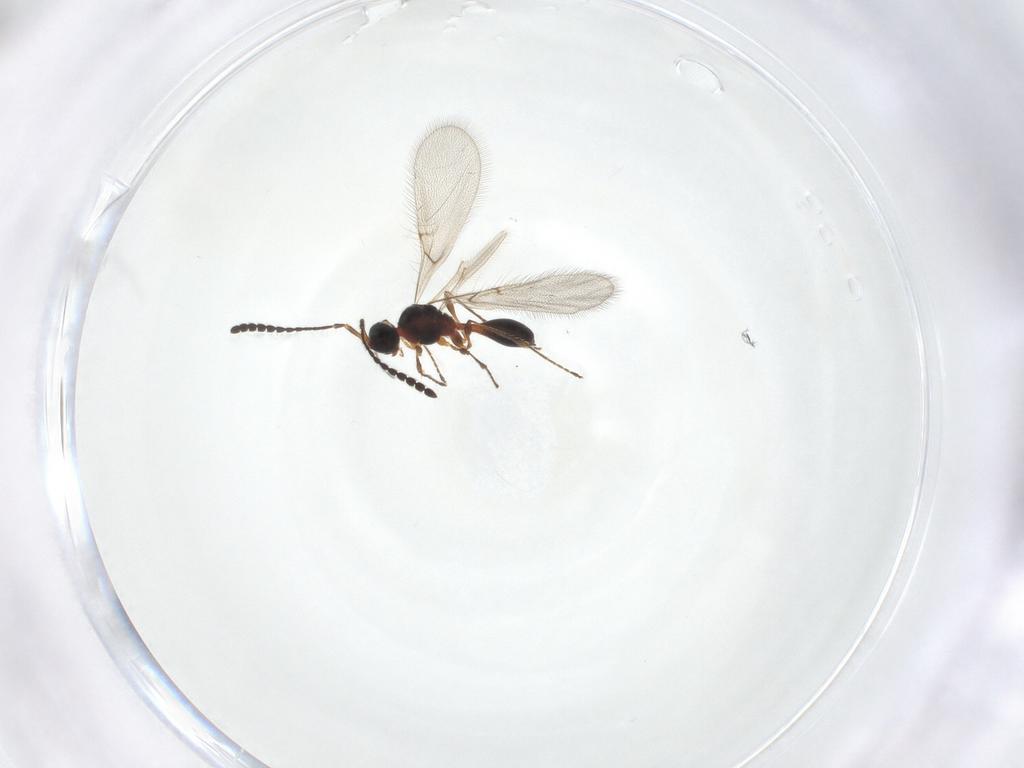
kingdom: Animalia
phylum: Arthropoda
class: Insecta
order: Hymenoptera
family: Diapriidae
